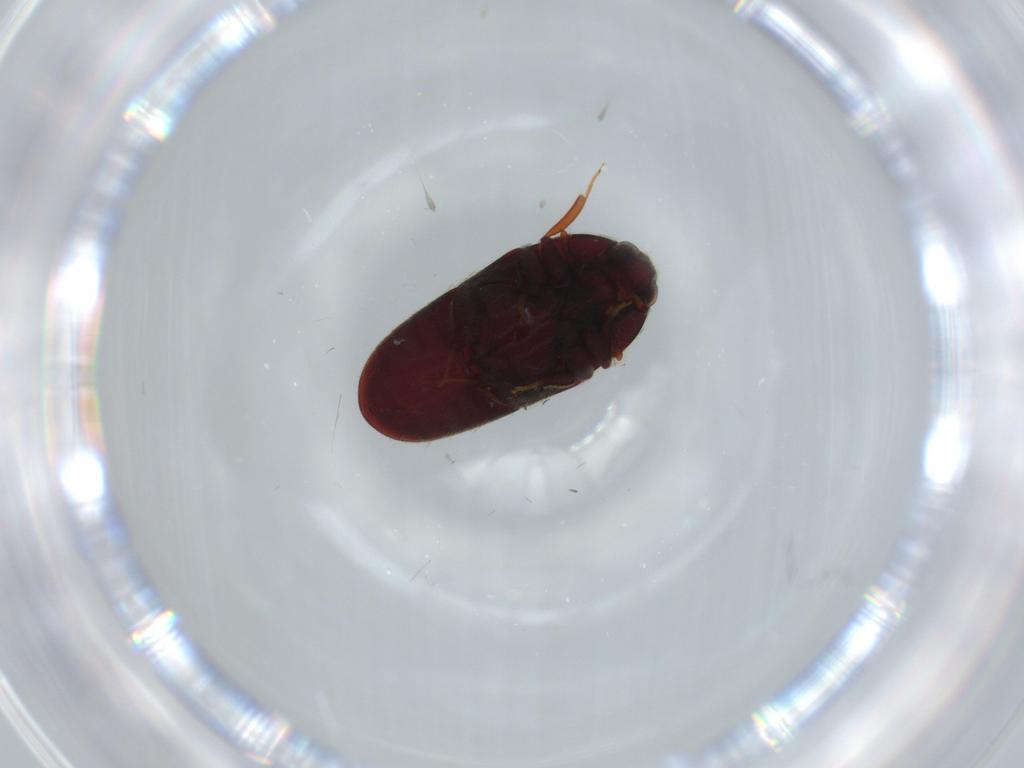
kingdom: Animalia
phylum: Arthropoda
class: Insecta
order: Coleoptera
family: Throscidae
